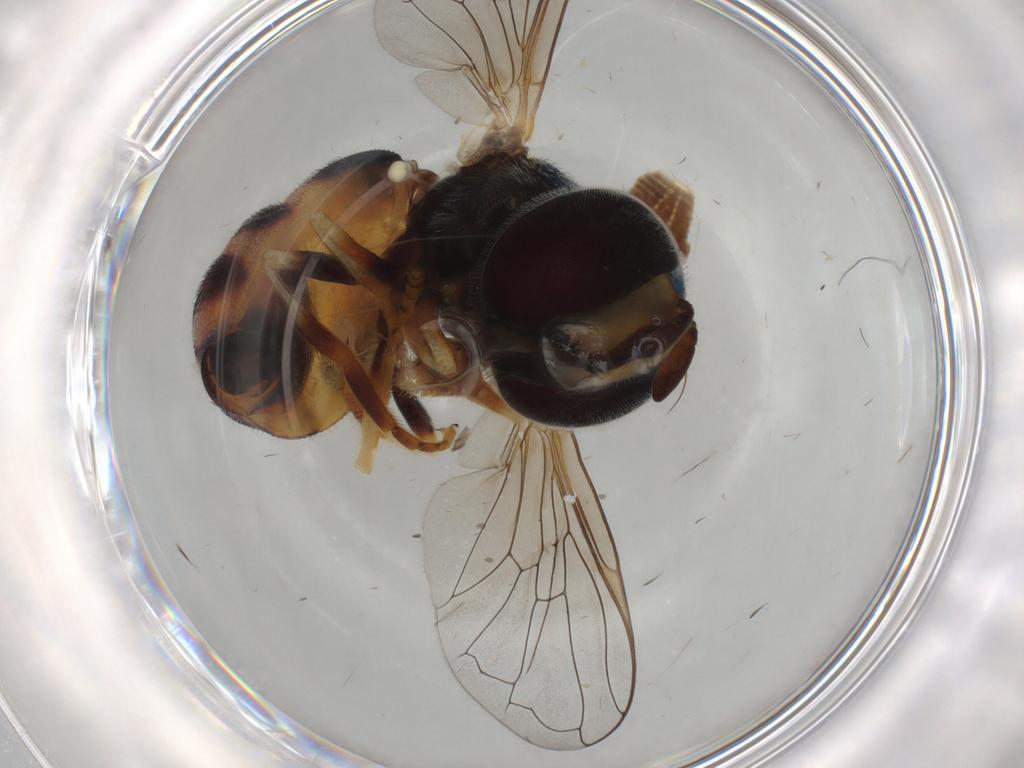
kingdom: Animalia
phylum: Arthropoda
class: Insecta
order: Diptera
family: Syrphidae
